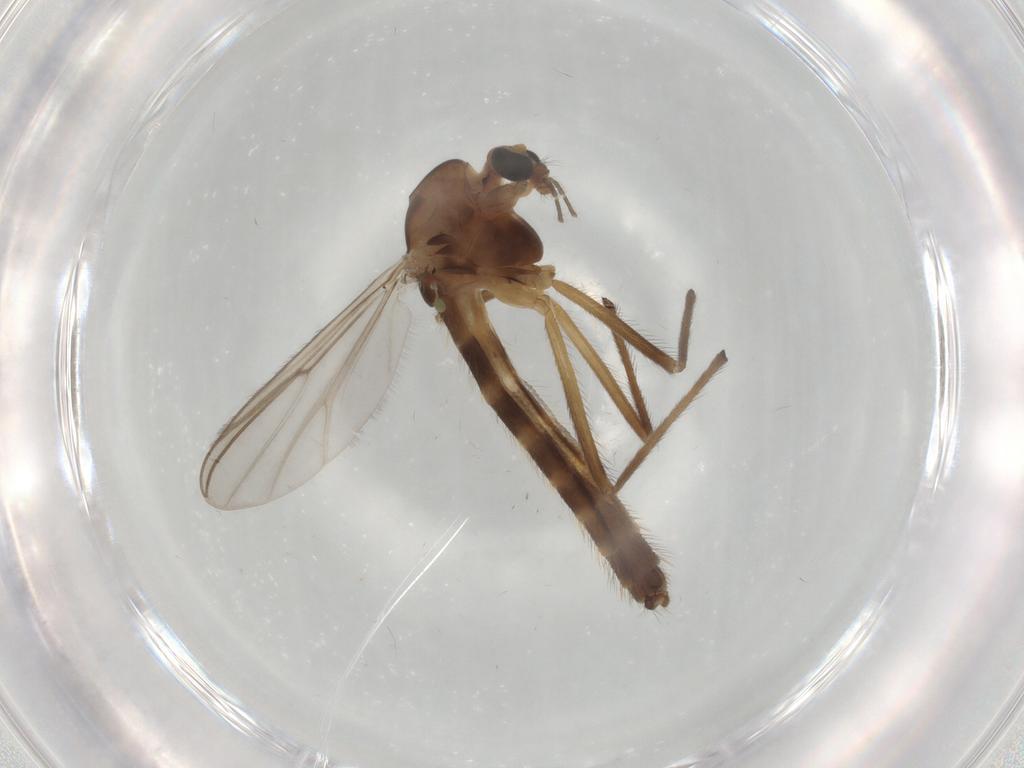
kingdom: Animalia
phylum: Arthropoda
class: Insecta
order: Diptera
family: Chironomidae
